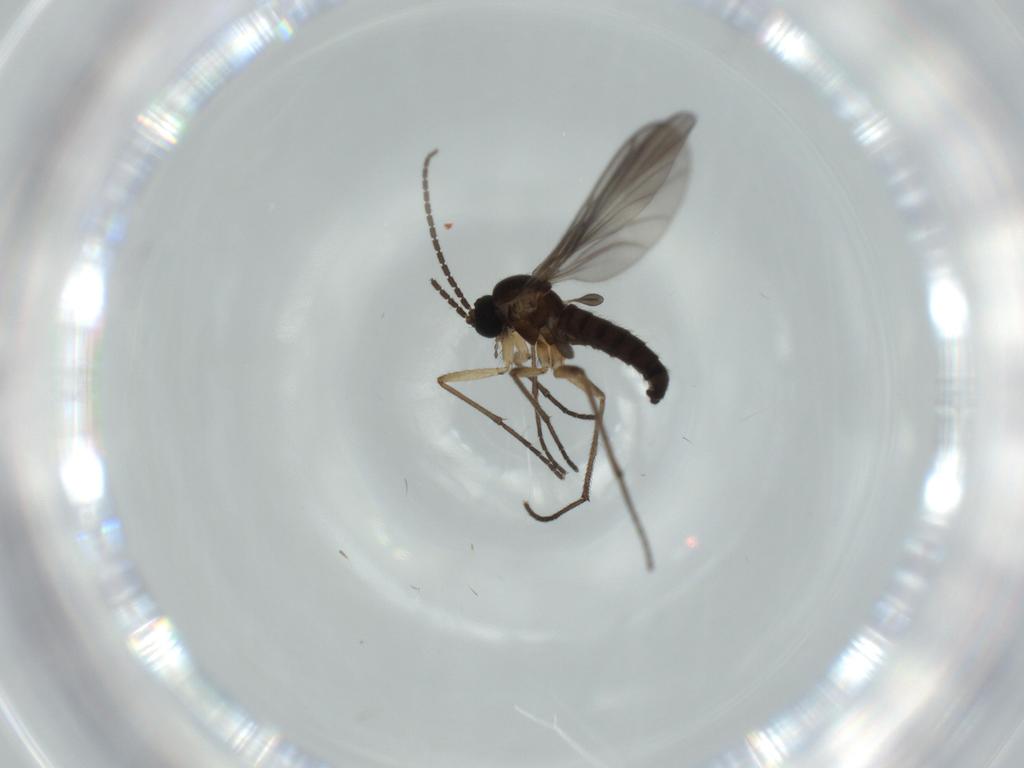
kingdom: Animalia
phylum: Arthropoda
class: Insecta
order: Diptera
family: Sciaridae
